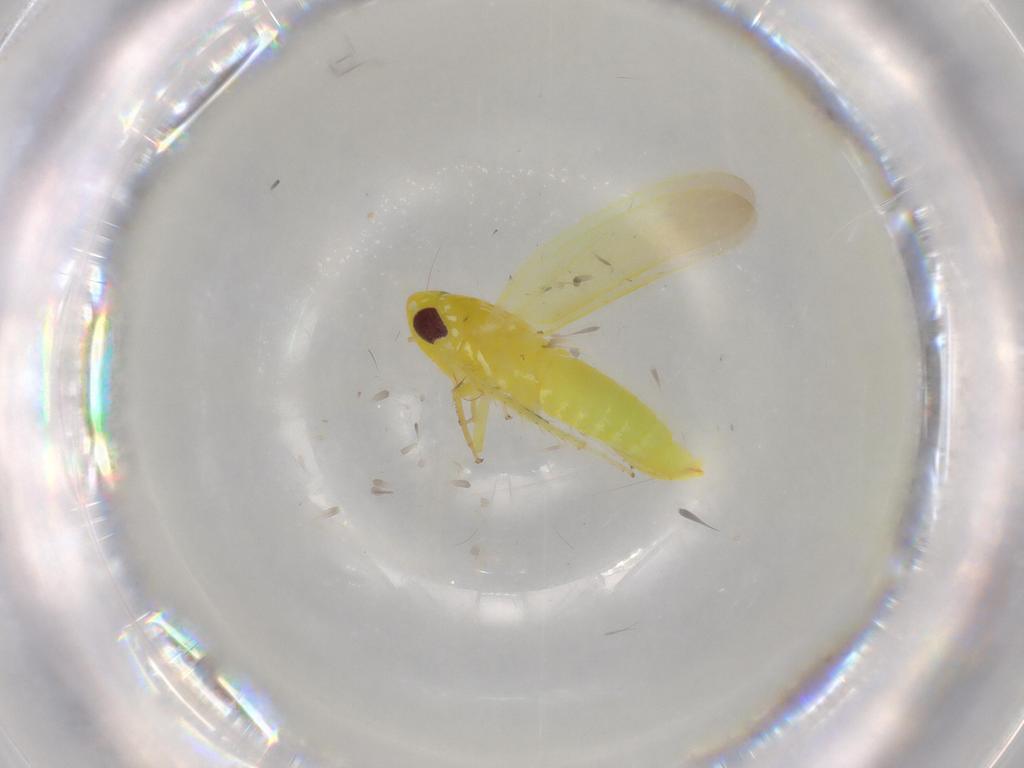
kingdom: Animalia
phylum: Arthropoda
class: Insecta
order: Hemiptera
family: Cicadellidae
